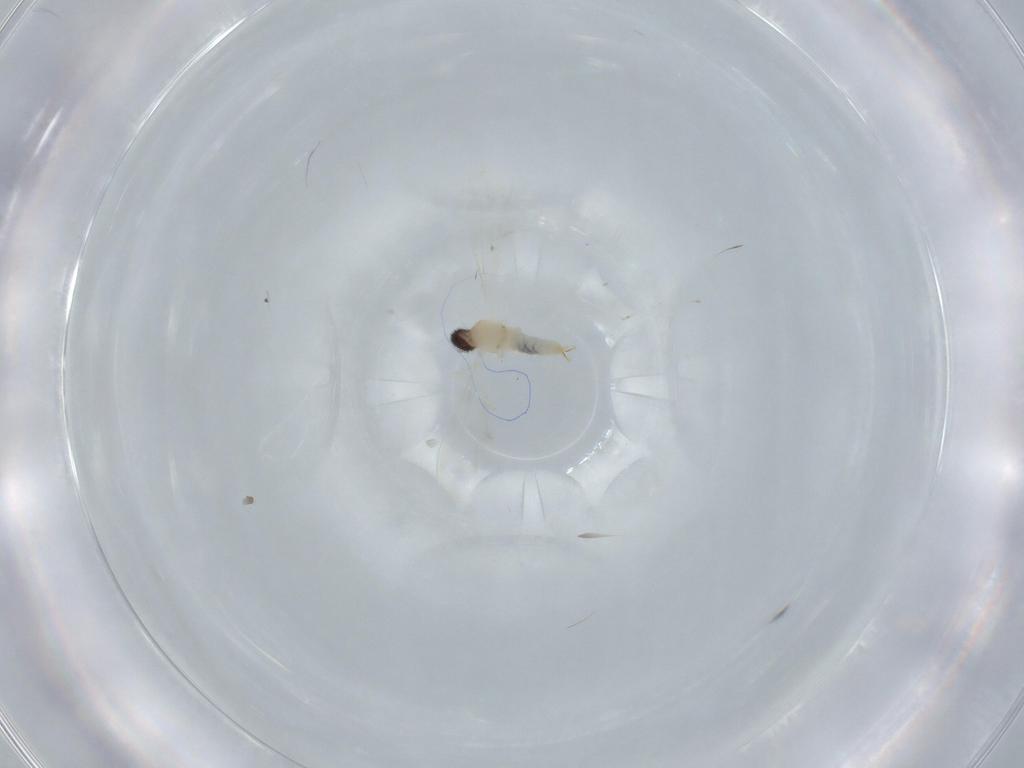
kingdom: Animalia
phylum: Arthropoda
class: Insecta
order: Diptera
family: Cecidomyiidae
